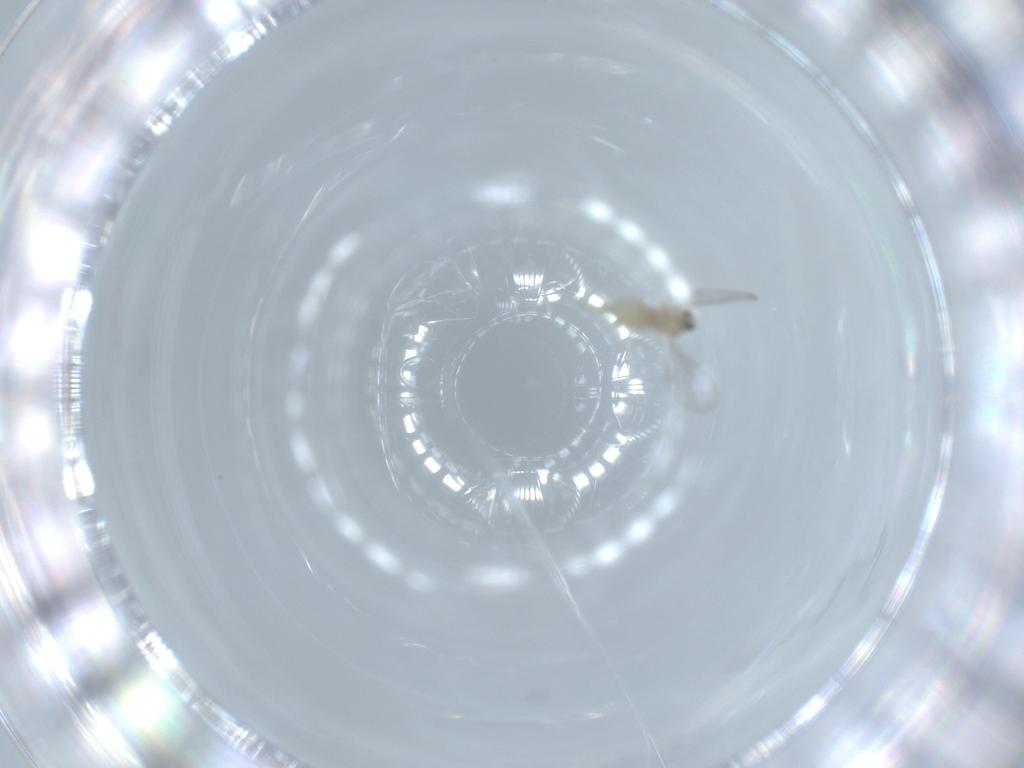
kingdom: Animalia
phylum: Arthropoda
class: Insecta
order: Diptera
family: Cecidomyiidae
